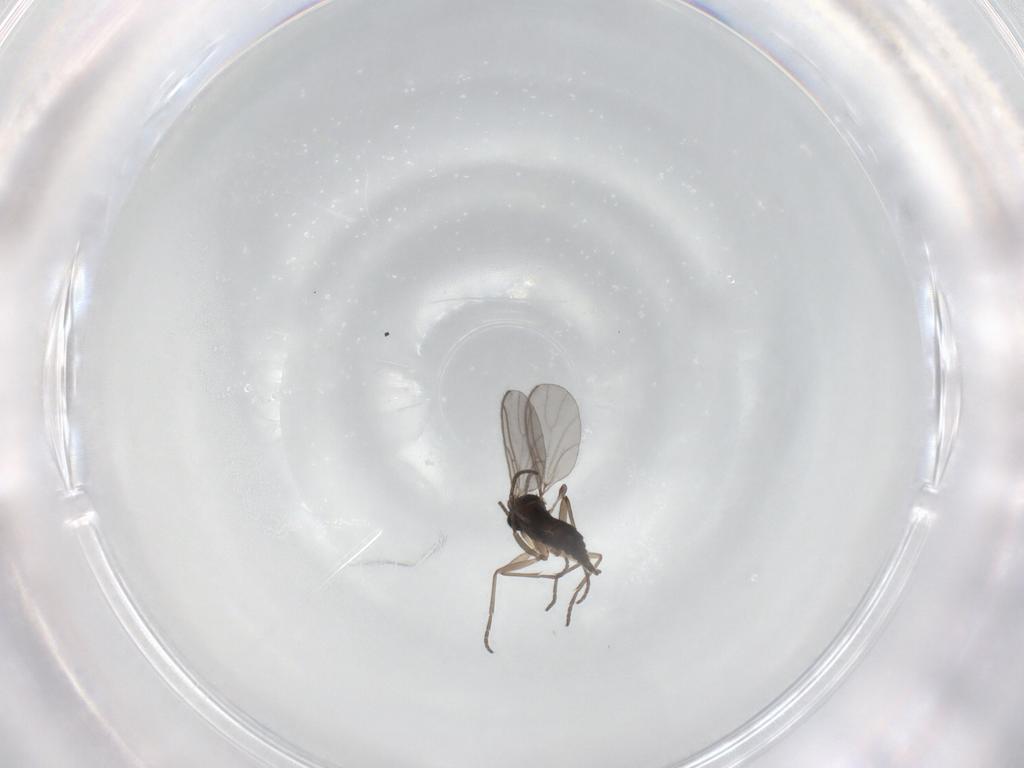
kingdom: Animalia
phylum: Arthropoda
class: Insecta
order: Diptera
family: Sciaridae
